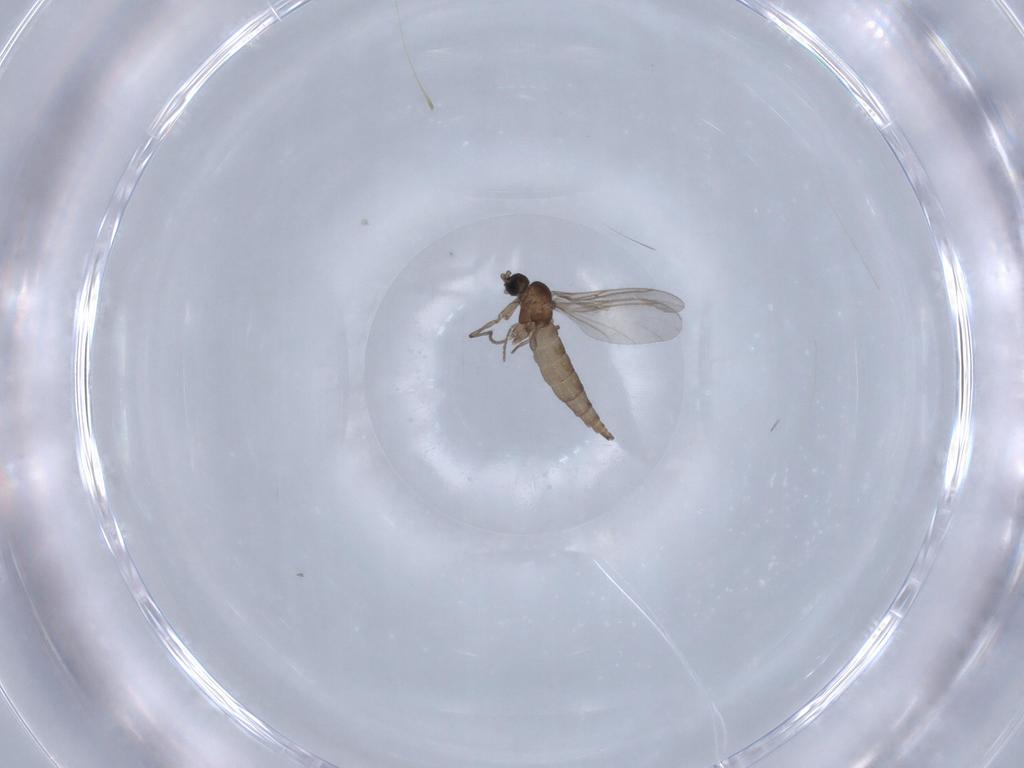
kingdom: Animalia
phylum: Arthropoda
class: Insecta
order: Diptera
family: Sciaridae
